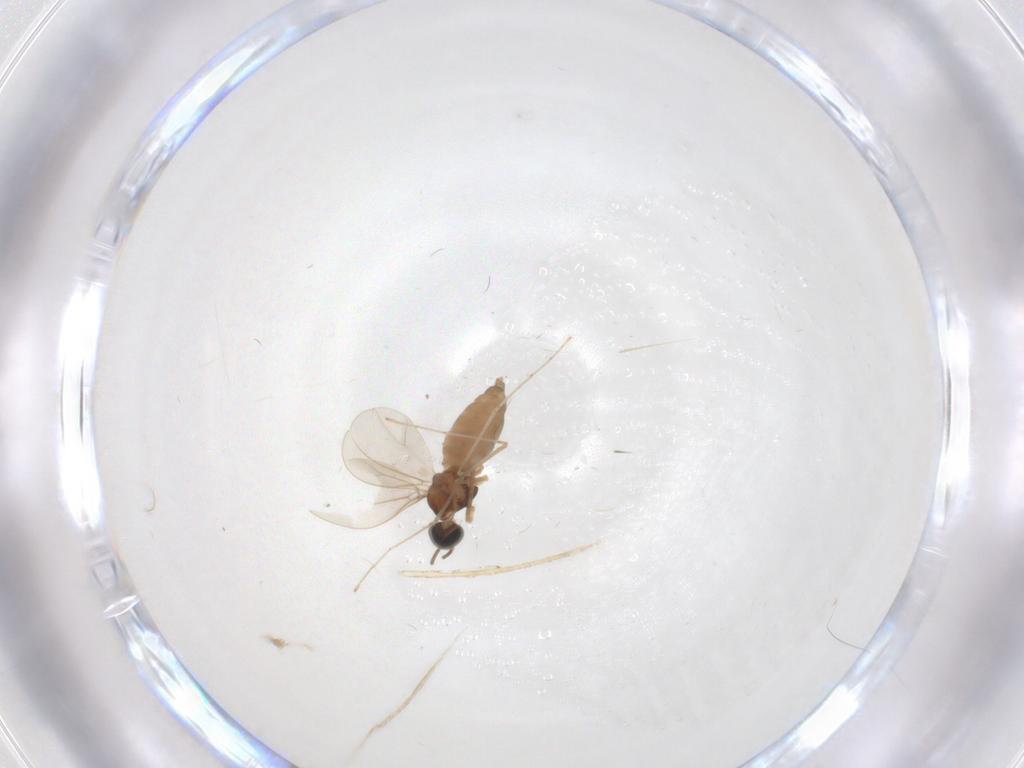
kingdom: Animalia
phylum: Arthropoda
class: Insecta
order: Diptera
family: Cecidomyiidae
